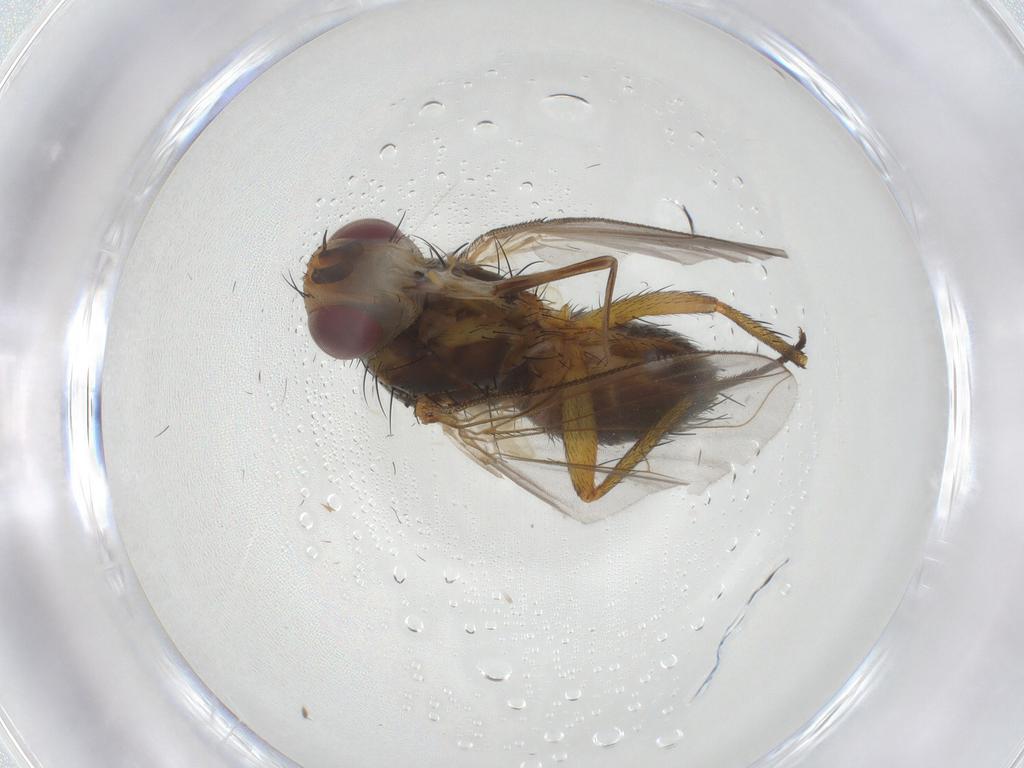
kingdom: Animalia
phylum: Arthropoda
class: Insecta
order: Diptera
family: Tachinidae
